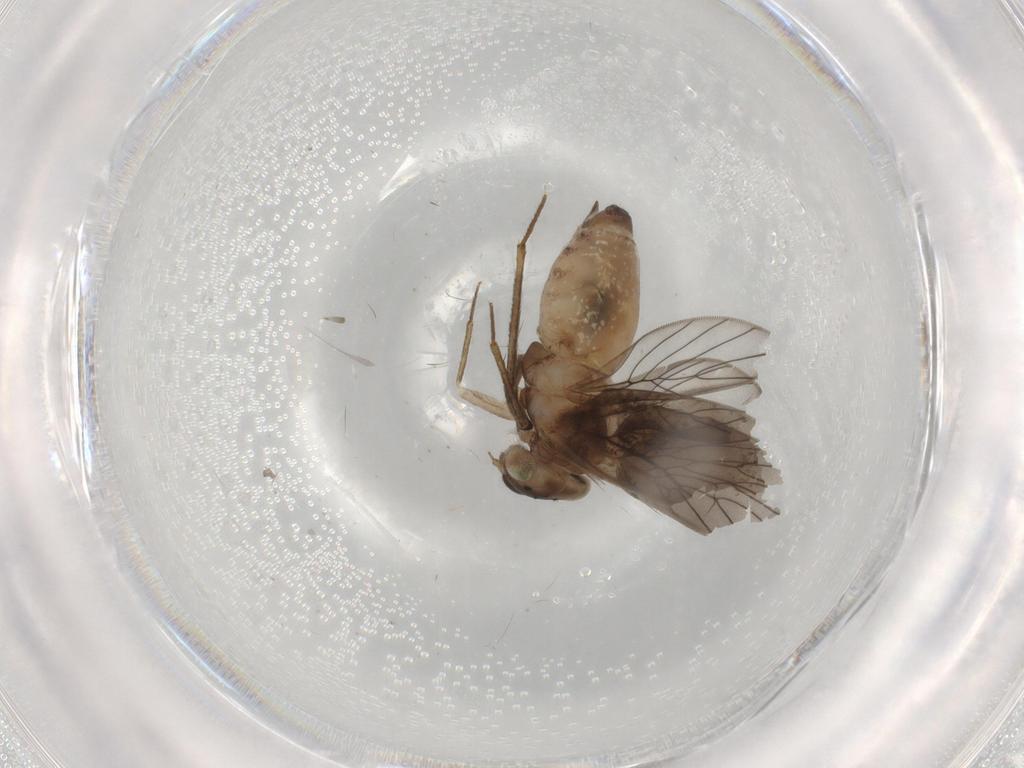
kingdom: Animalia
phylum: Arthropoda
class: Insecta
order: Psocodea
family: Lepidopsocidae
